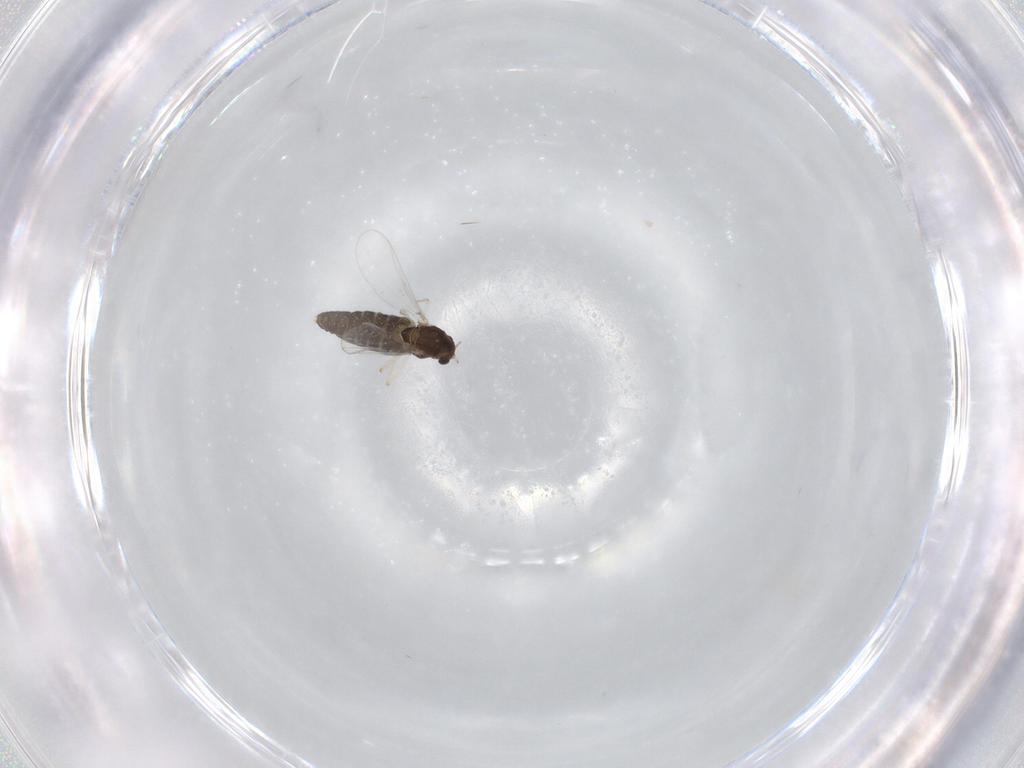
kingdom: Animalia
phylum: Arthropoda
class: Insecta
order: Diptera
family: Chironomidae
